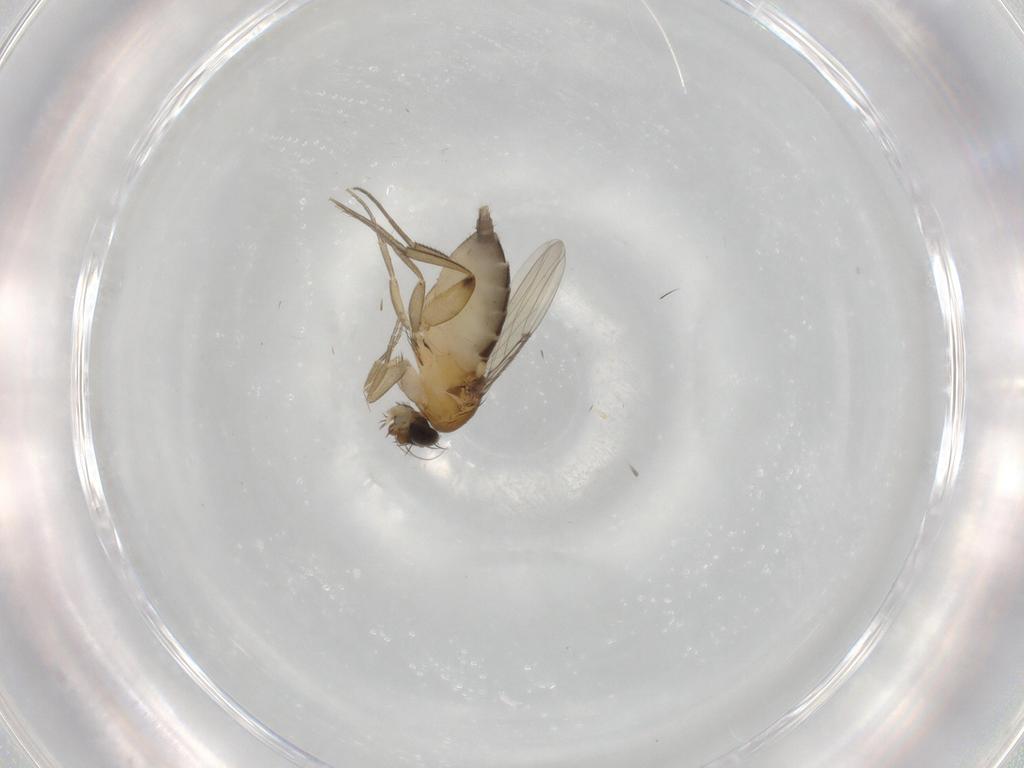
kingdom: Animalia
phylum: Arthropoda
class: Insecta
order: Diptera
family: Phoridae
